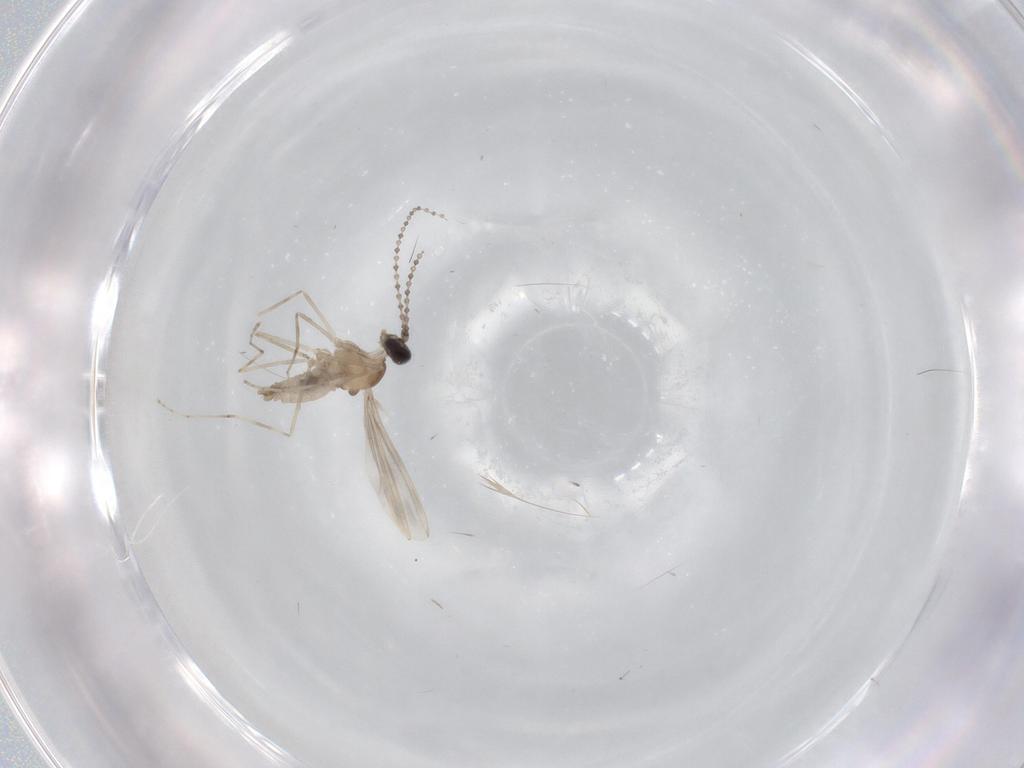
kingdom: Animalia
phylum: Arthropoda
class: Insecta
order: Diptera
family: Cecidomyiidae
